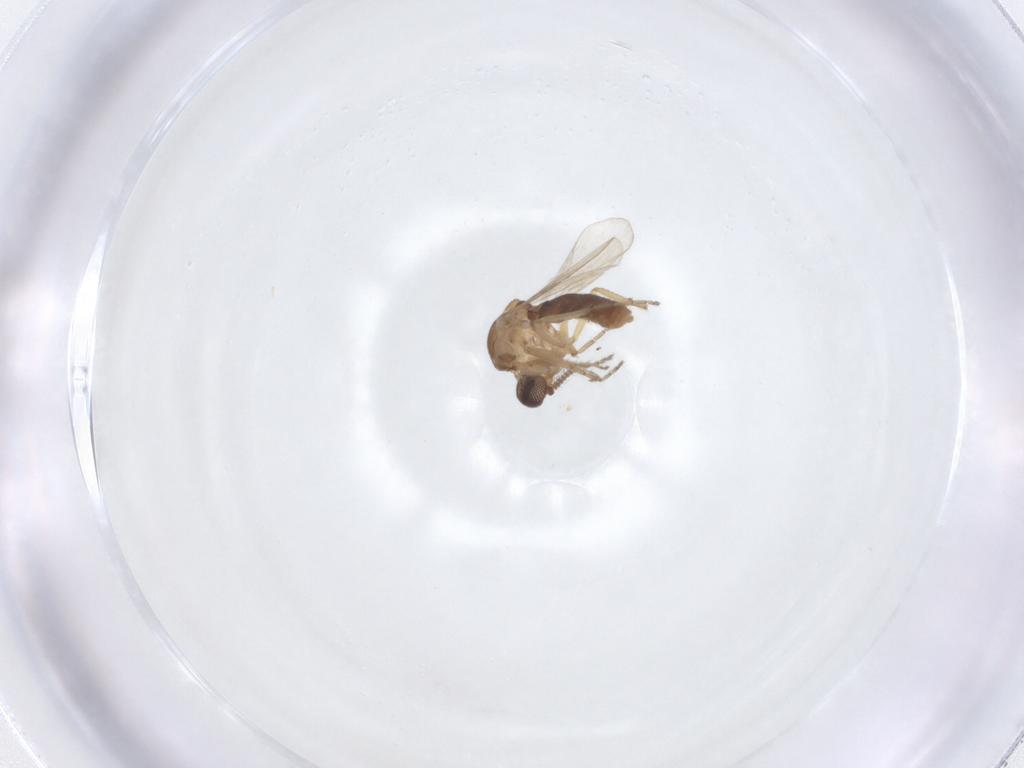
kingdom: Animalia
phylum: Arthropoda
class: Insecta
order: Diptera
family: Ceratopogonidae
